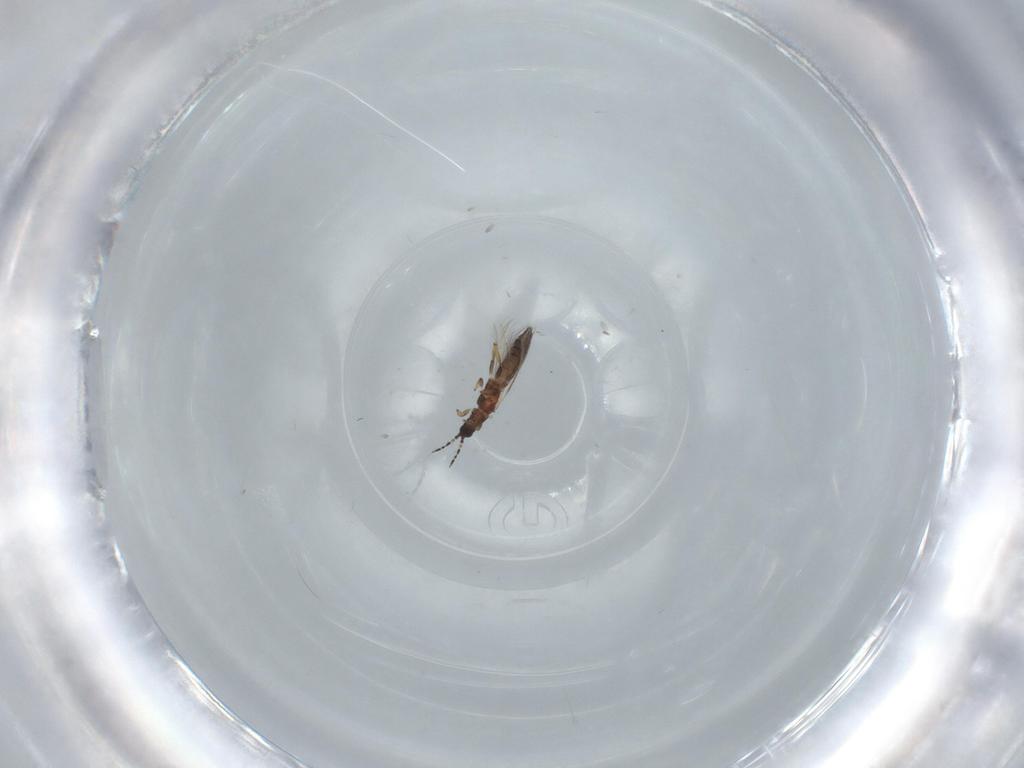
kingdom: Animalia
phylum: Arthropoda
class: Insecta
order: Thysanoptera
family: Thripidae
